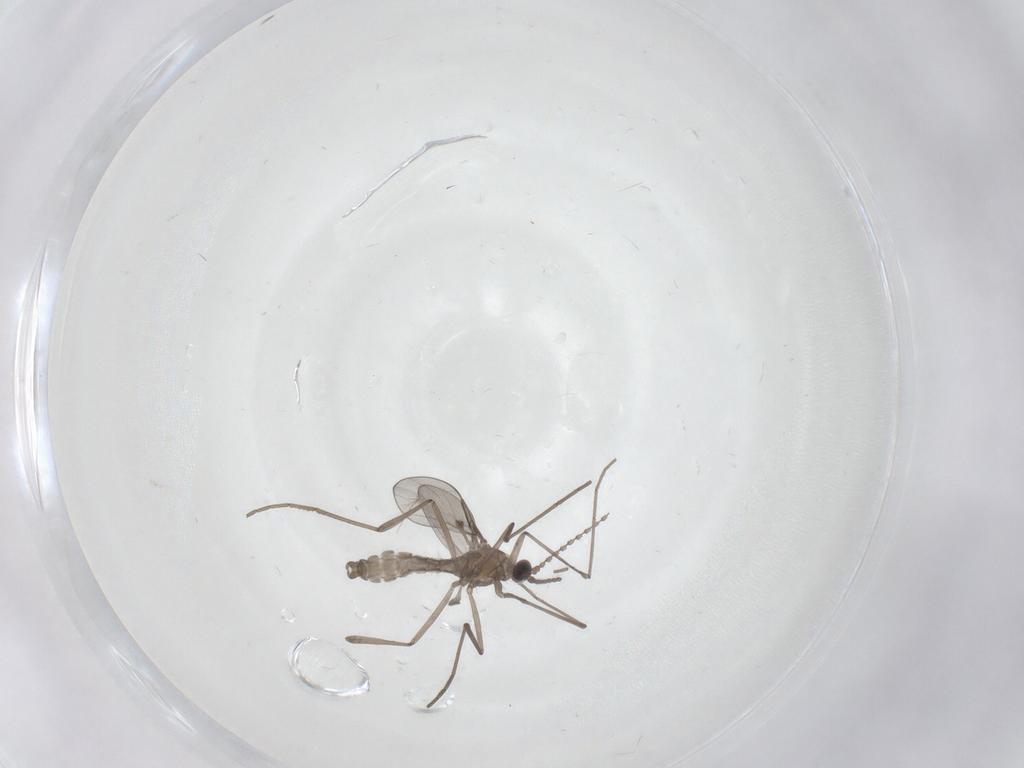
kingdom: Animalia
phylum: Arthropoda
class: Insecta
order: Diptera
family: Cecidomyiidae
